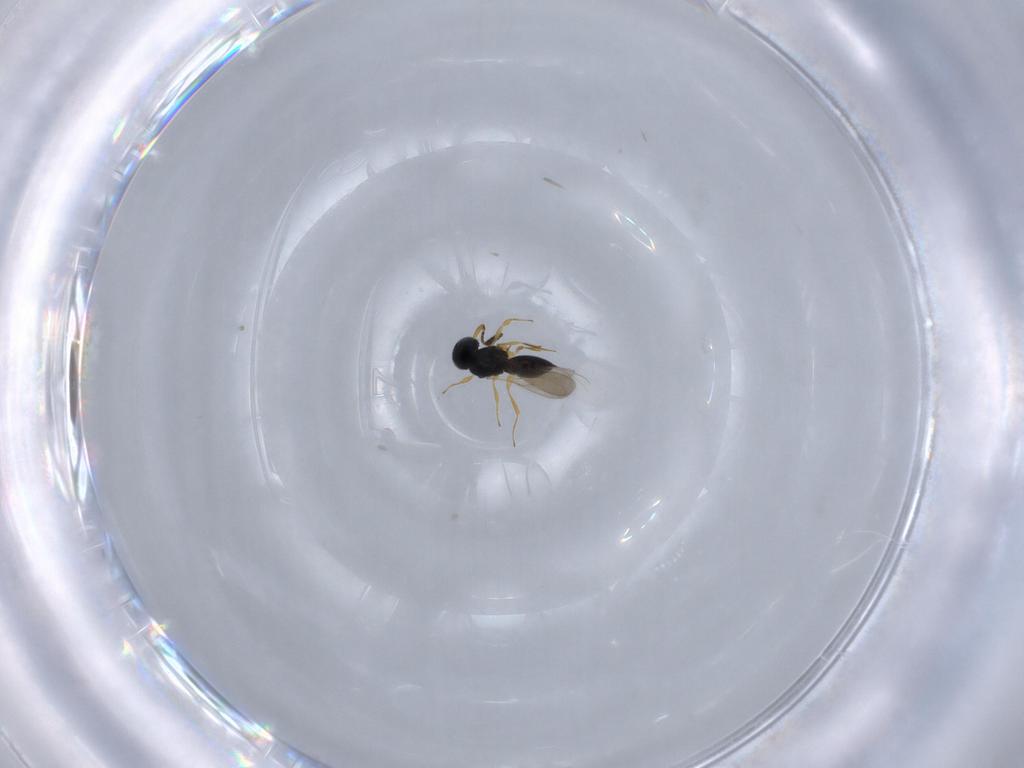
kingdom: Animalia
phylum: Arthropoda
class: Insecta
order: Hymenoptera
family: Scelionidae
